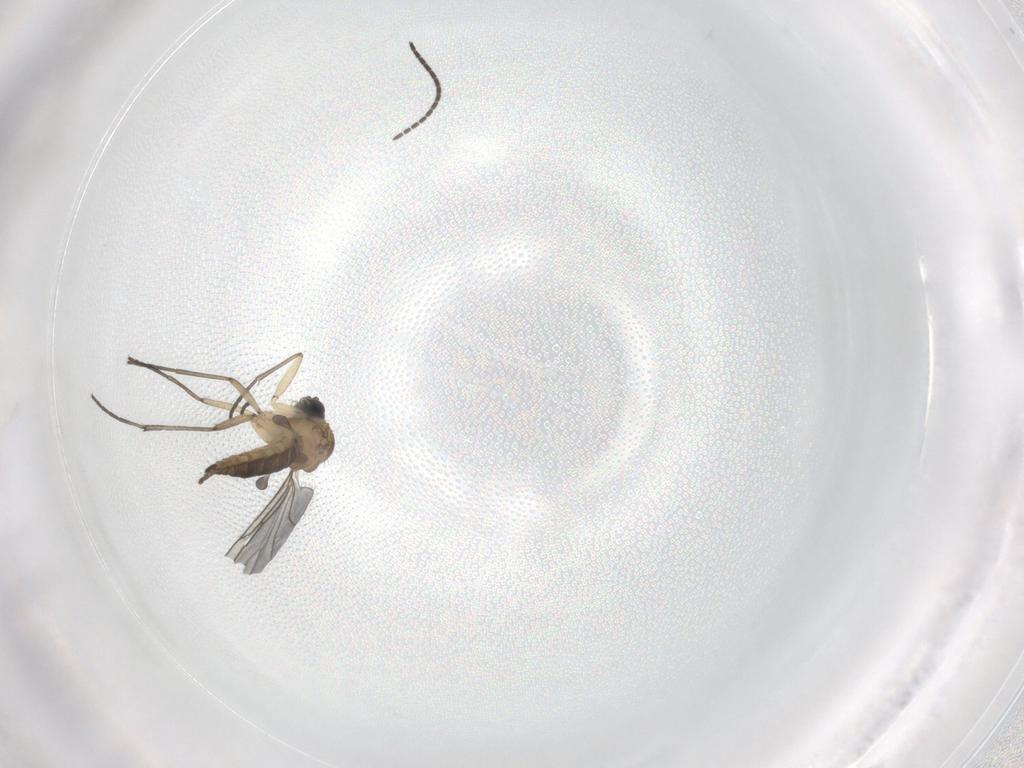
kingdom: Animalia
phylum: Arthropoda
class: Insecta
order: Diptera
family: Sciaridae
